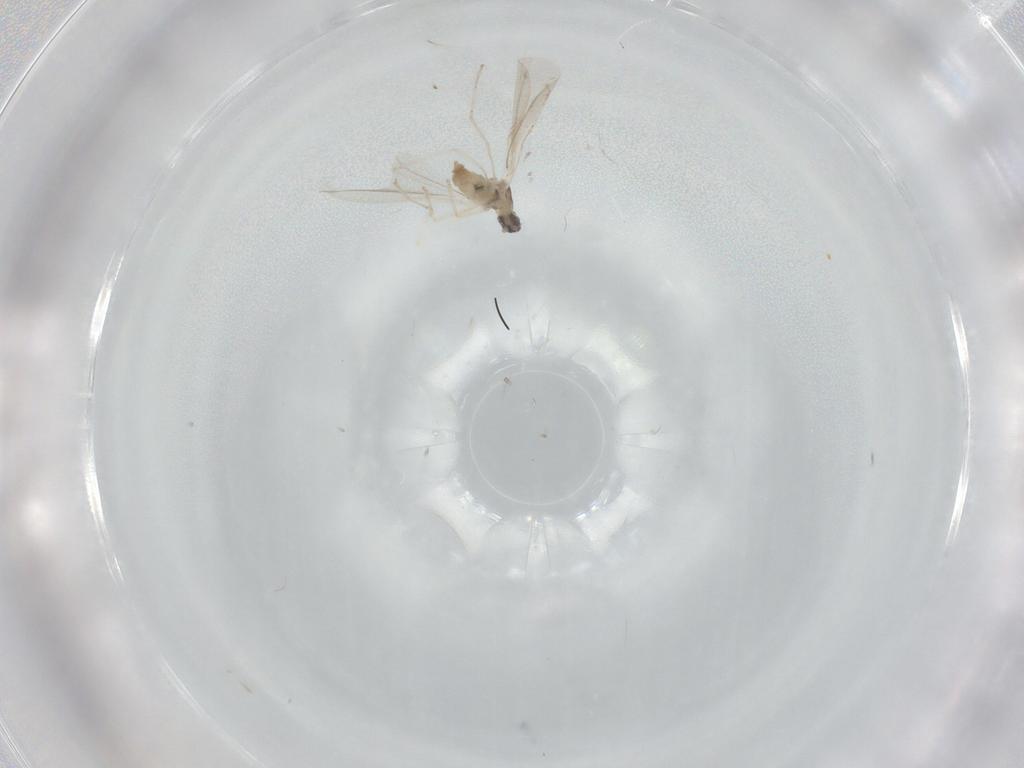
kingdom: Animalia
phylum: Arthropoda
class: Insecta
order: Diptera
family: Cecidomyiidae
